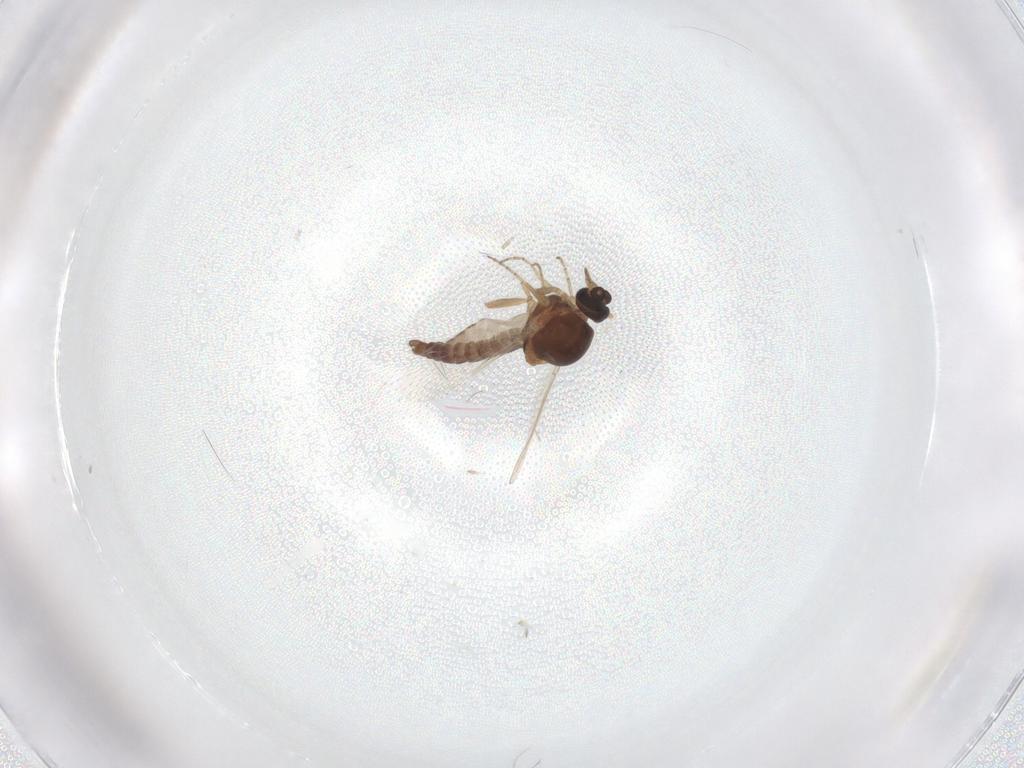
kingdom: Animalia
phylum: Arthropoda
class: Insecta
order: Diptera
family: Ceratopogonidae
